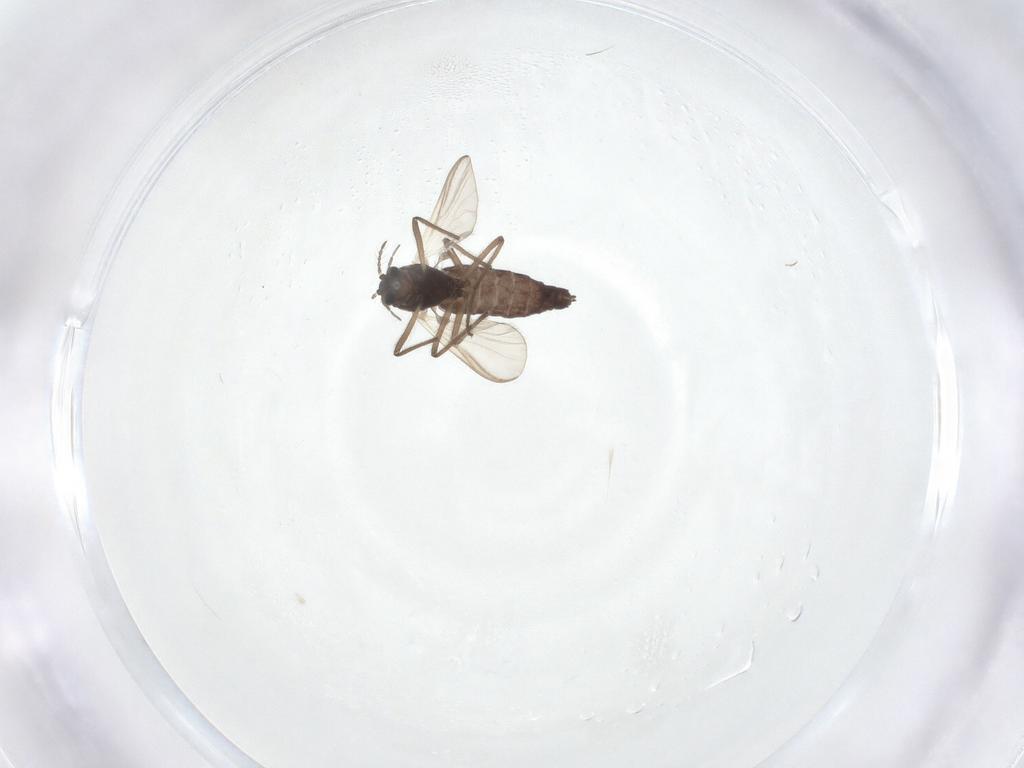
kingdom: Animalia
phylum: Arthropoda
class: Insecta
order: Diptera
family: Chironomidae
